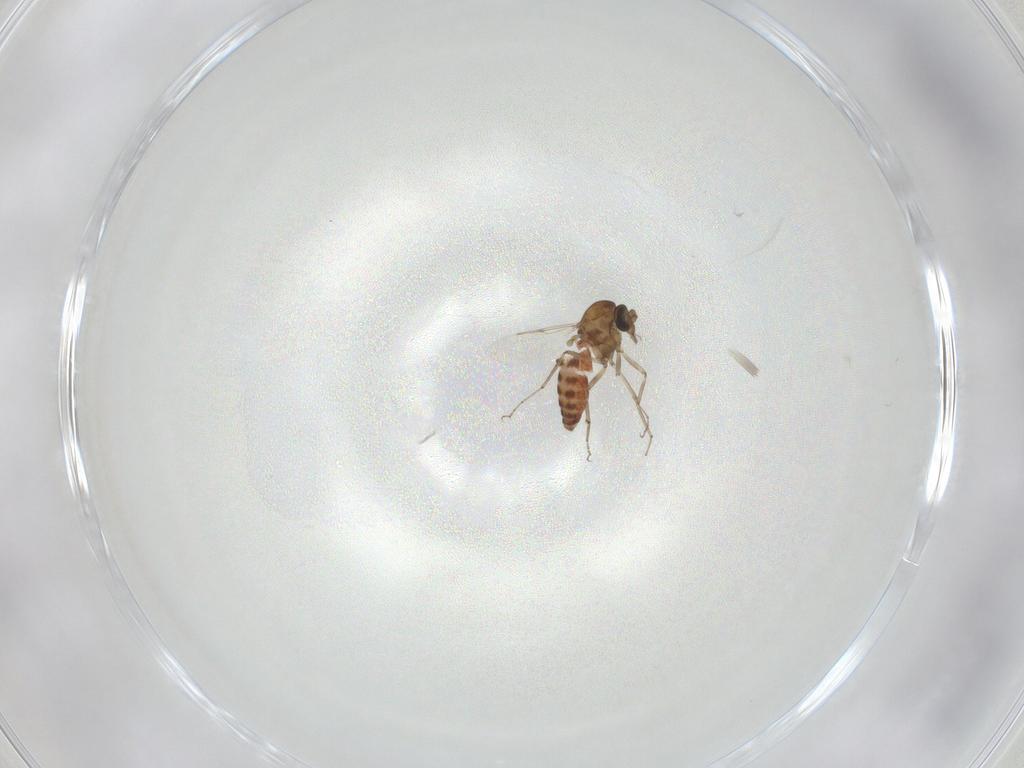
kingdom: Animalia
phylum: Arthropoda
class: Insecta
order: Diptera
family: Ceratopogonidae
